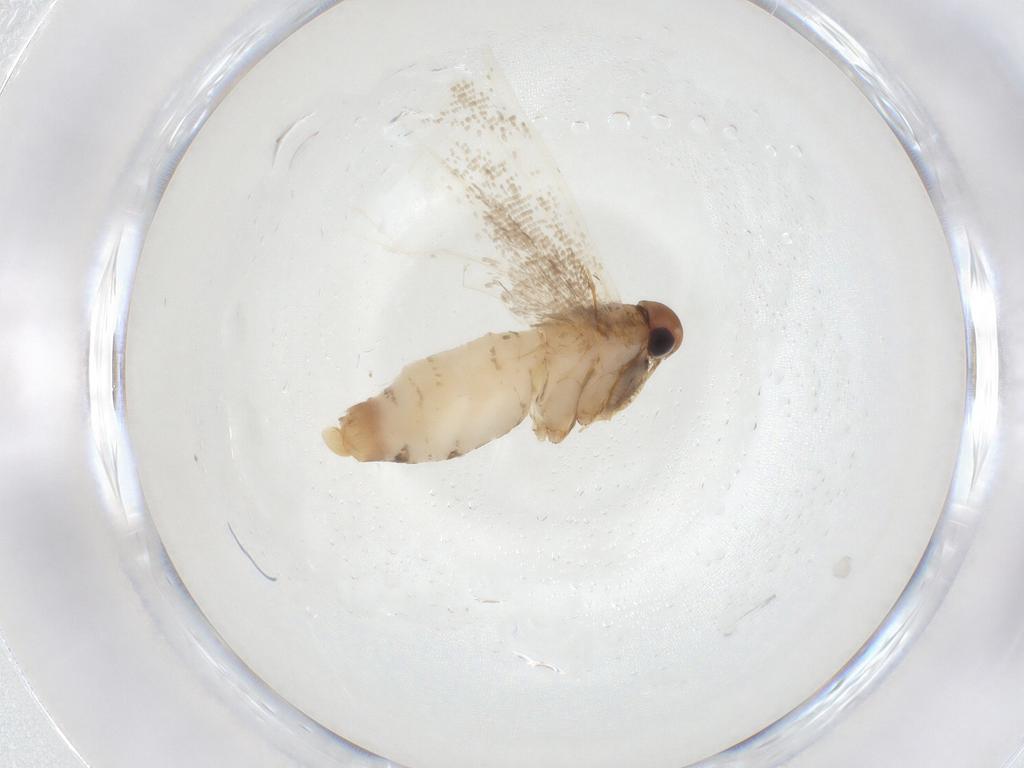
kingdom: Animalia
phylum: Arthropoda
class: Insecta
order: Lepidoptera
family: Gelechiidae
